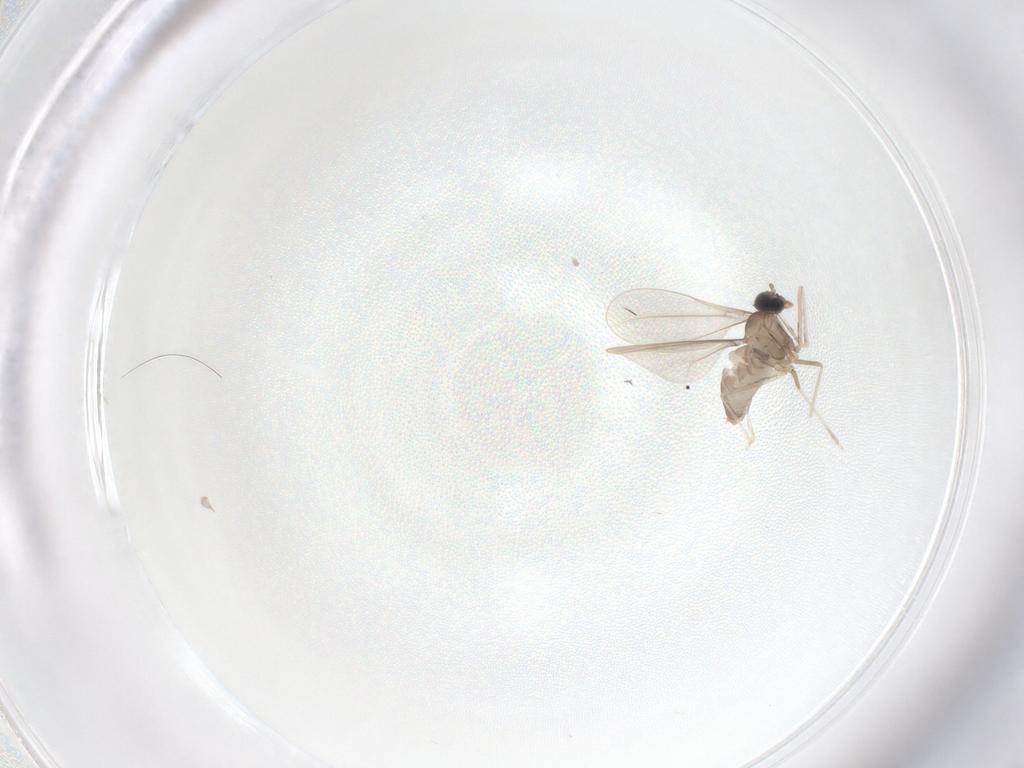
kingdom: Animalia
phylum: Arthropoda
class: Insecta
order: Diptera
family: Cecidomyiidae
